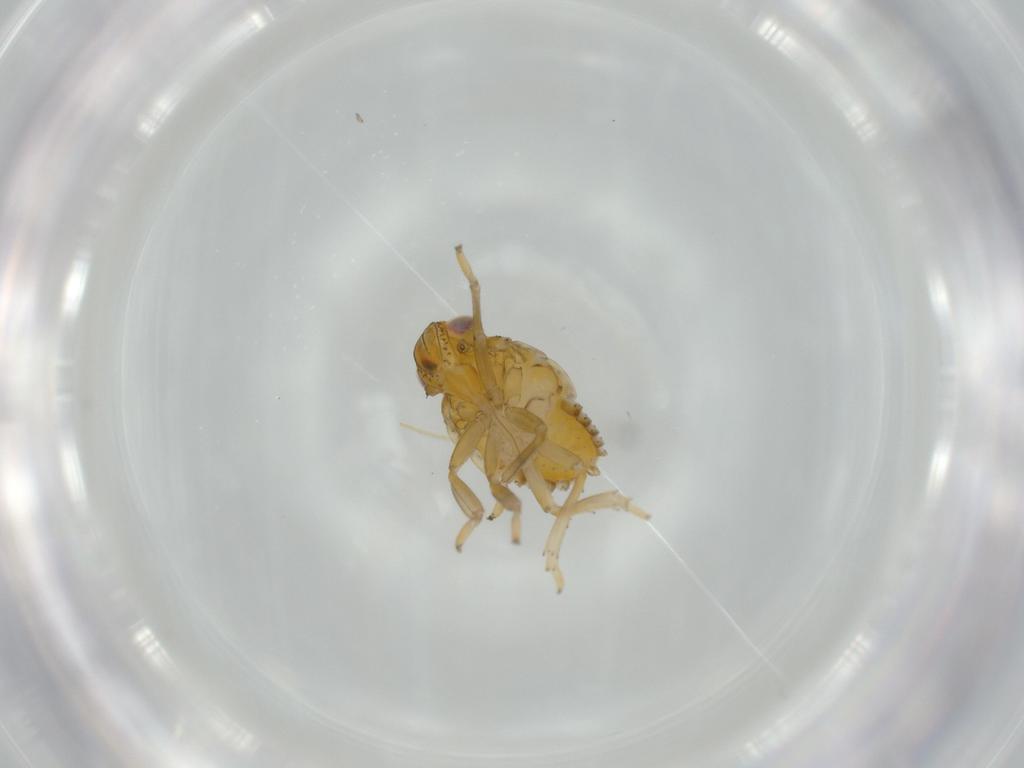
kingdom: Animalia
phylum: Arthropoda
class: Insecta
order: Hemiptera
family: Issidae
